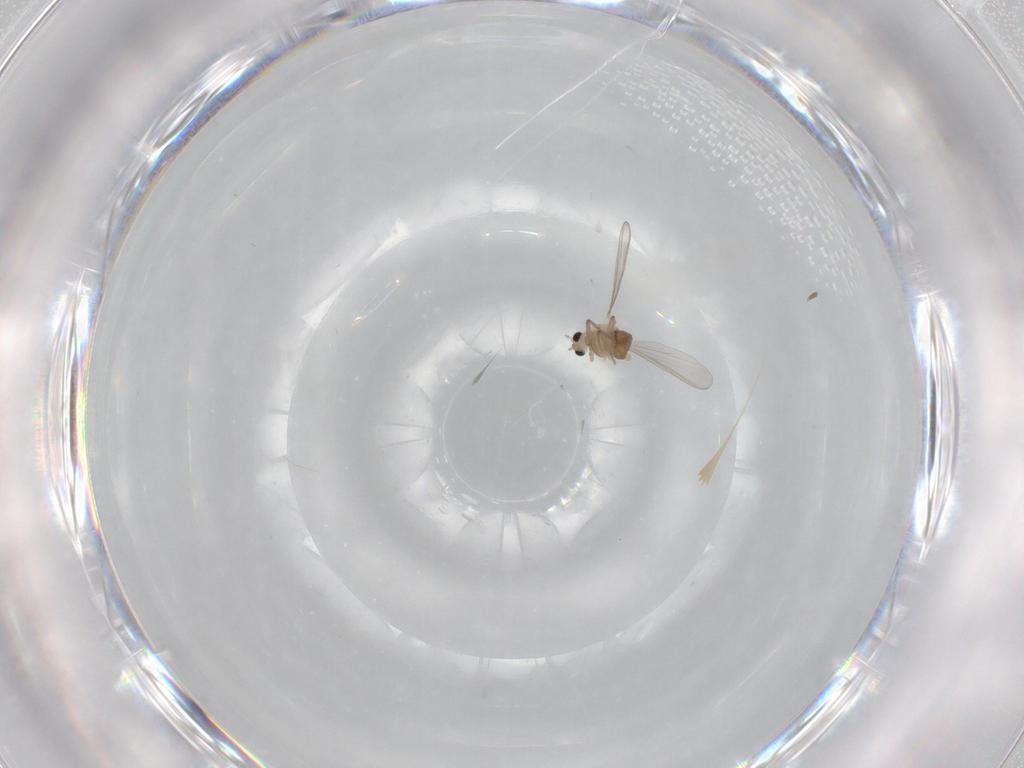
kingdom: Animalia
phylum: Arthropoda
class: Insecta
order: Diptera
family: Chironomidae
